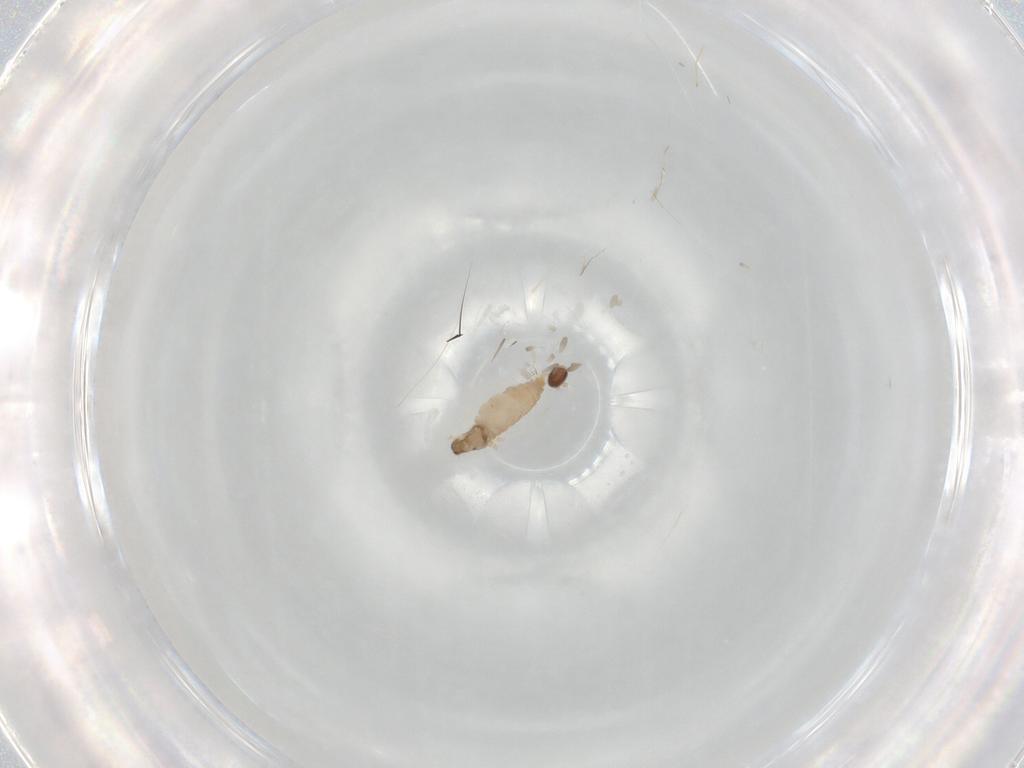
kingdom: Animalia
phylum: Arthropoda
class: Insecta
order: Diptera
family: Cecidomyiidae
